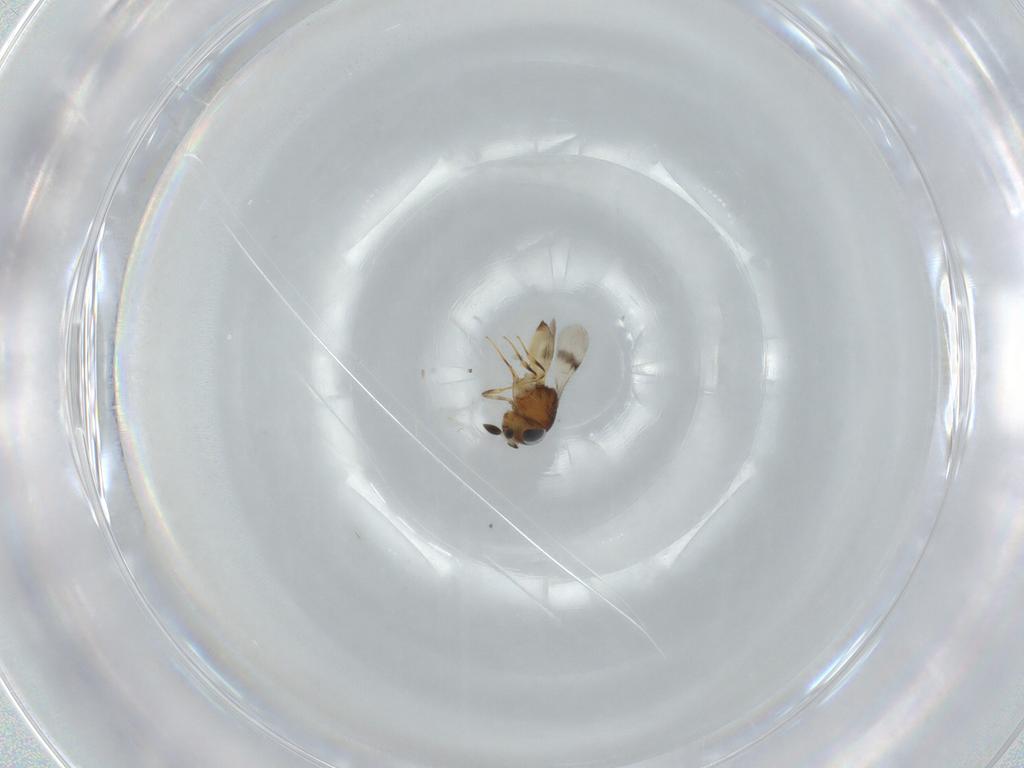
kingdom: Animalia
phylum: Arthropoda
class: Arachnida
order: Araneae
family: Pholcidae
